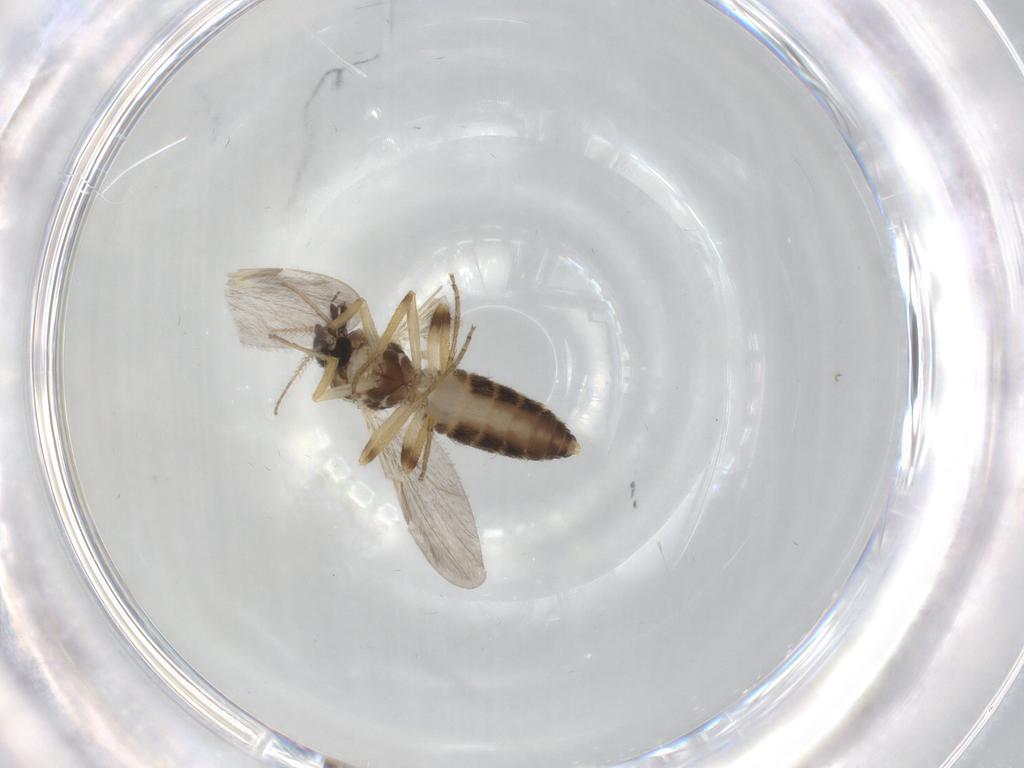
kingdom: Animalia
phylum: Arthropoda
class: Insecta
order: Diptera
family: Ceratopogonidae
